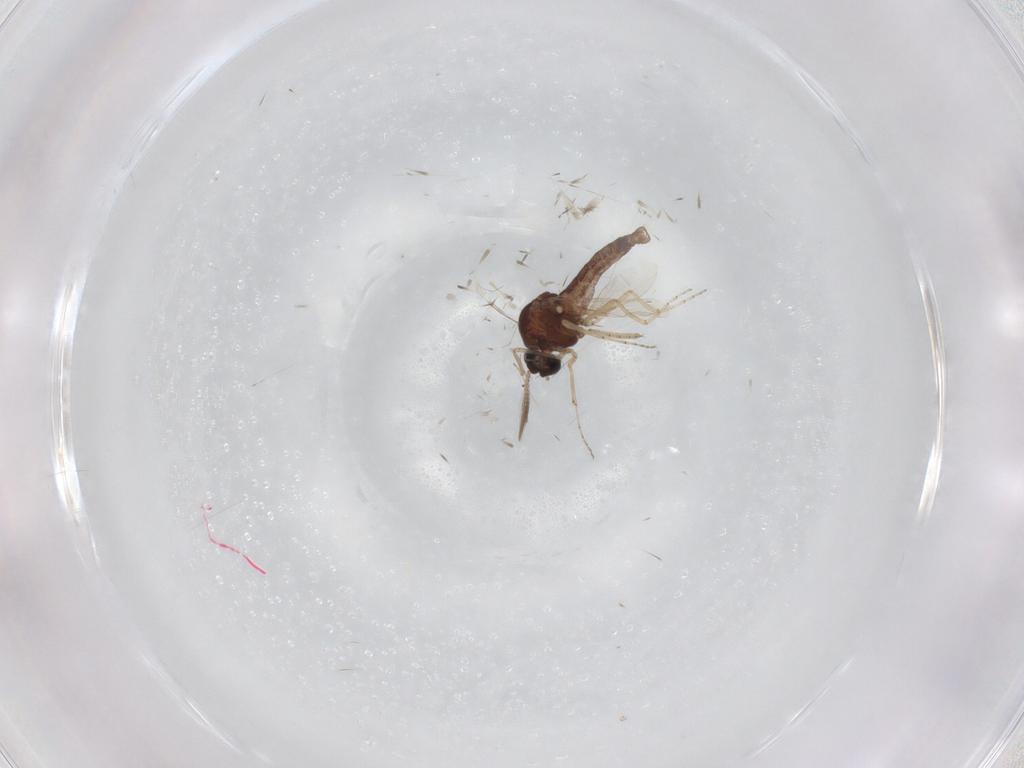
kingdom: Animalia
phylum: Arthropoda
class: Insecta
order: Diptera
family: Ceratopogonidae
